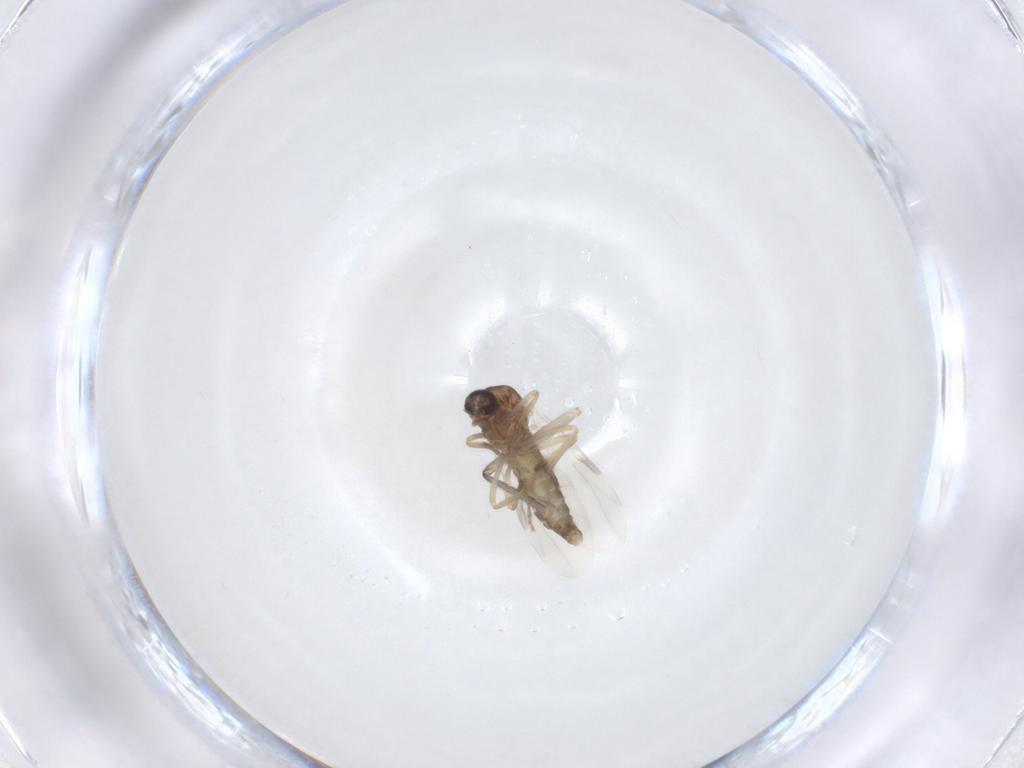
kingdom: Animalia
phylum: Arthropoda
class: Insecta
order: Diptera
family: Ceratopogonidae
